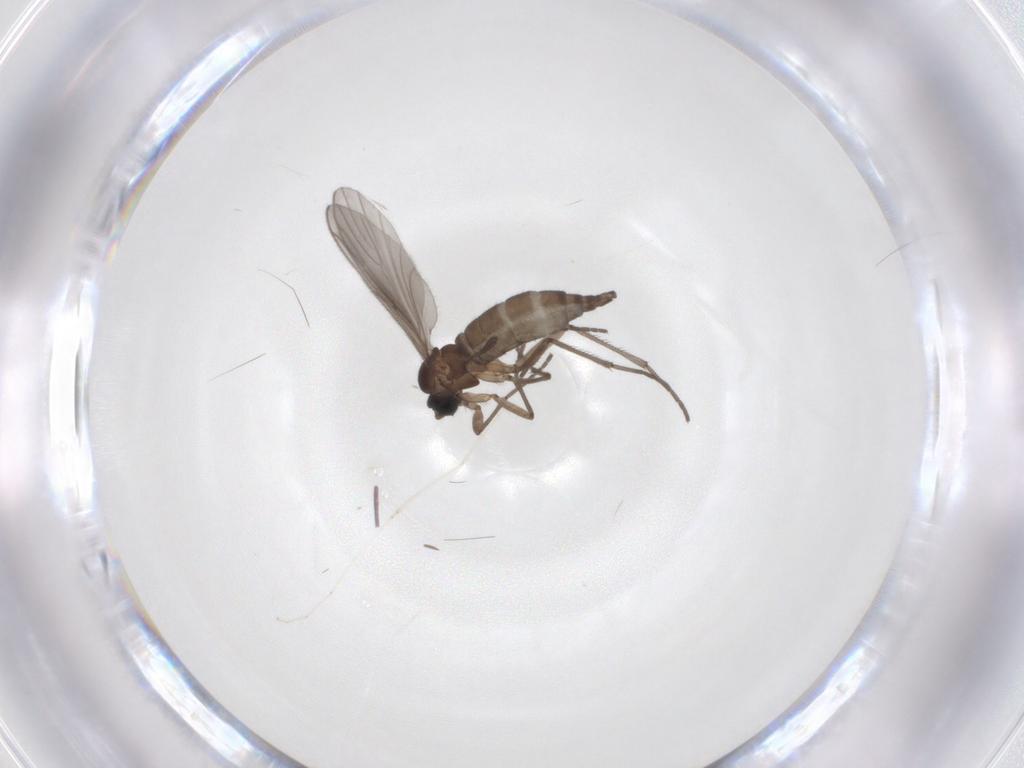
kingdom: Animalia
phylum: Arthropoda
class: Insecta
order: Diptera
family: Sciaridae
